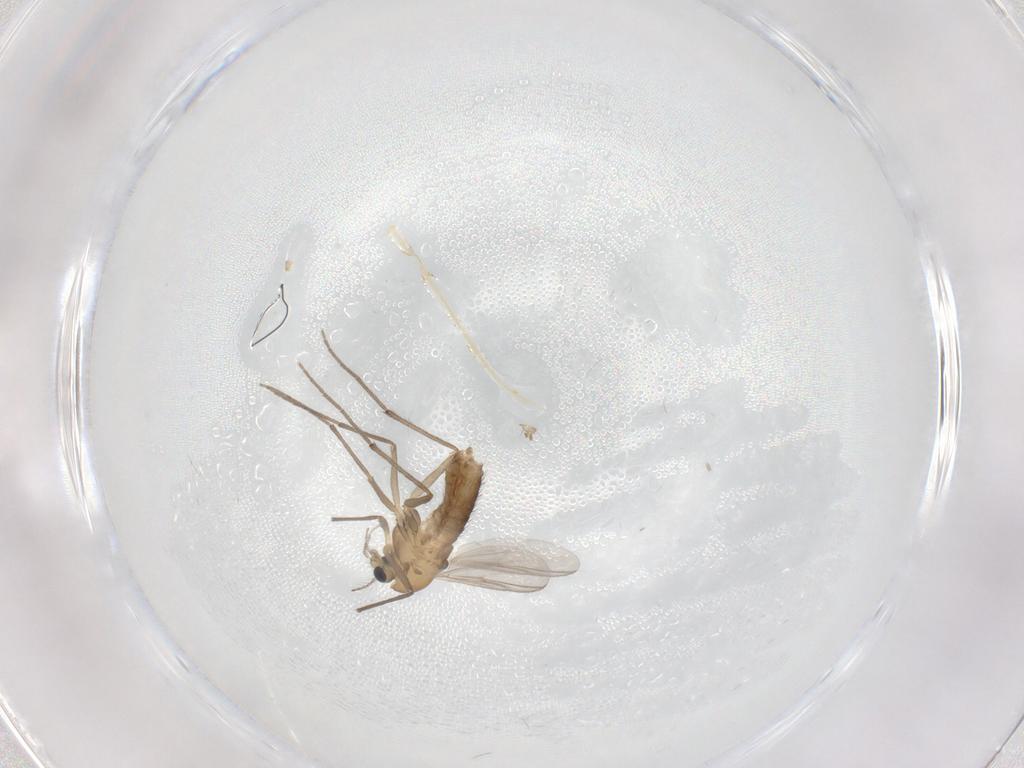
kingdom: Animalia
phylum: Arthropoda
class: Insecta
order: Diptera
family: Chironomidae
